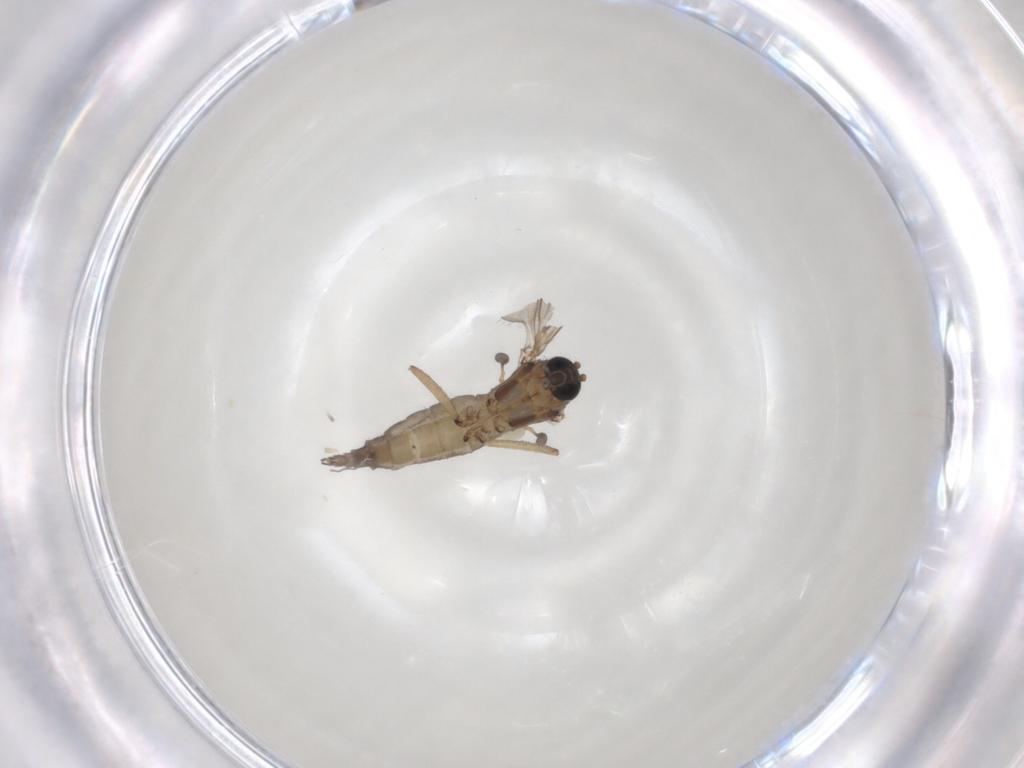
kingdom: Animalia
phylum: Arthropoda
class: Insecta
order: Diptera
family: Sciaridae
